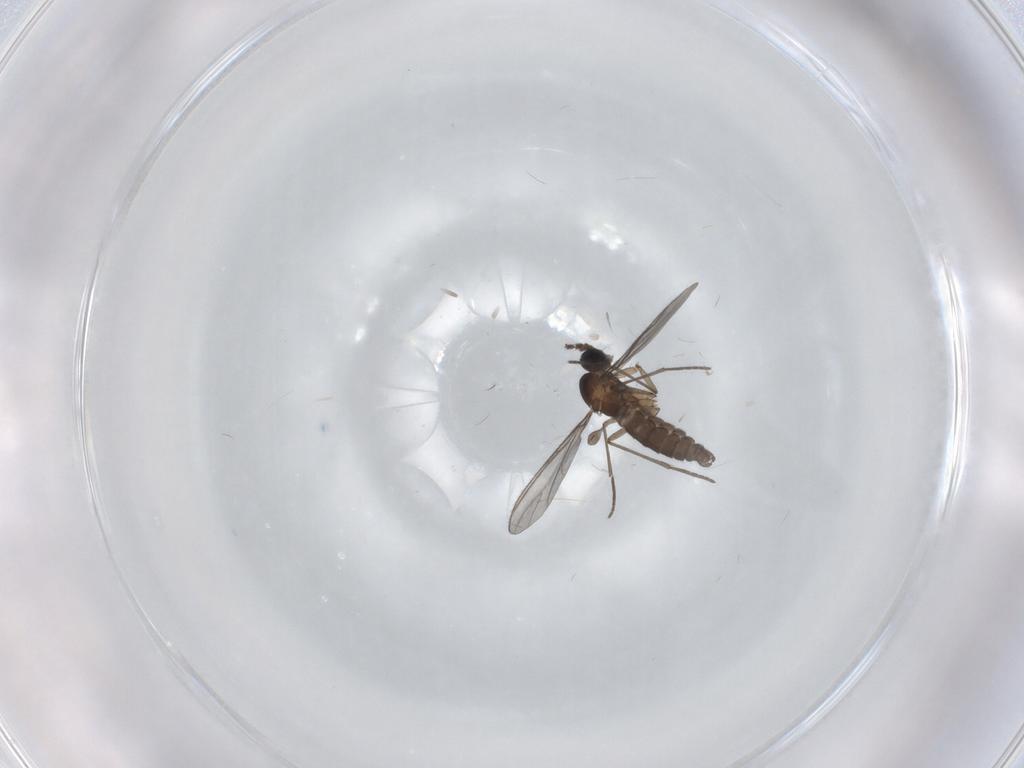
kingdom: Animalia
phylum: Arthropoda
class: Insecta
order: Diptera
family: Sciaridae
